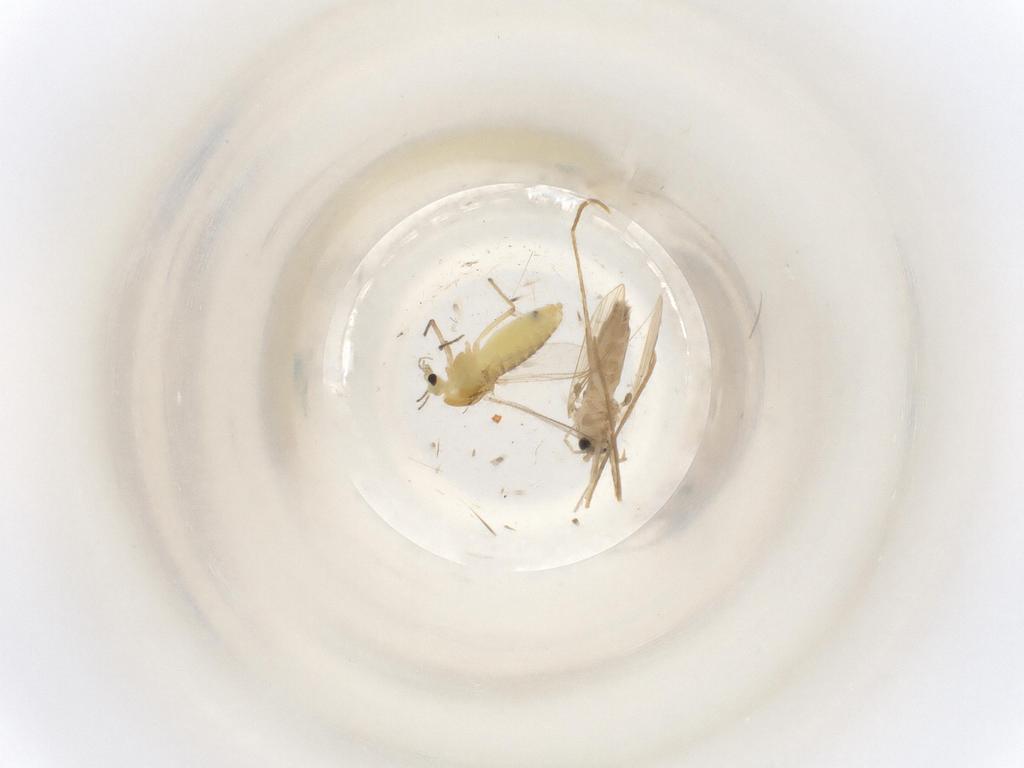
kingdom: Animalia
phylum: Arthropoda
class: Insecta
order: Diptera
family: Psychodidae
